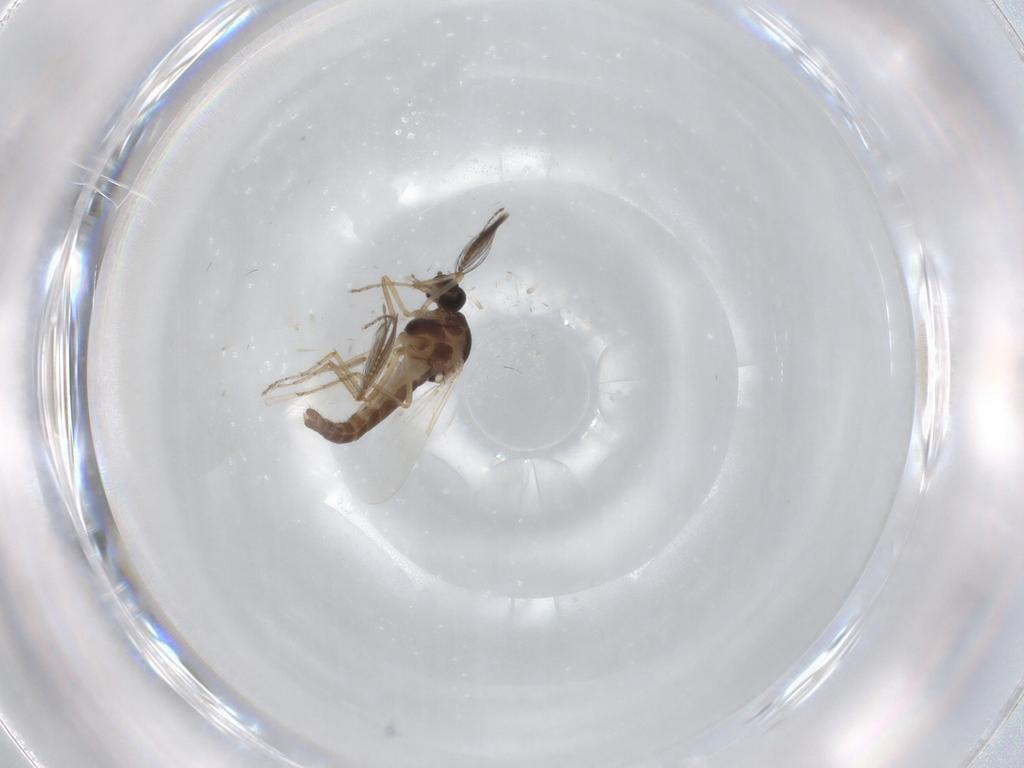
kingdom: Animalia
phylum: Arthropoda
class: Insecta
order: Diptera
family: Ceratopogonidae
